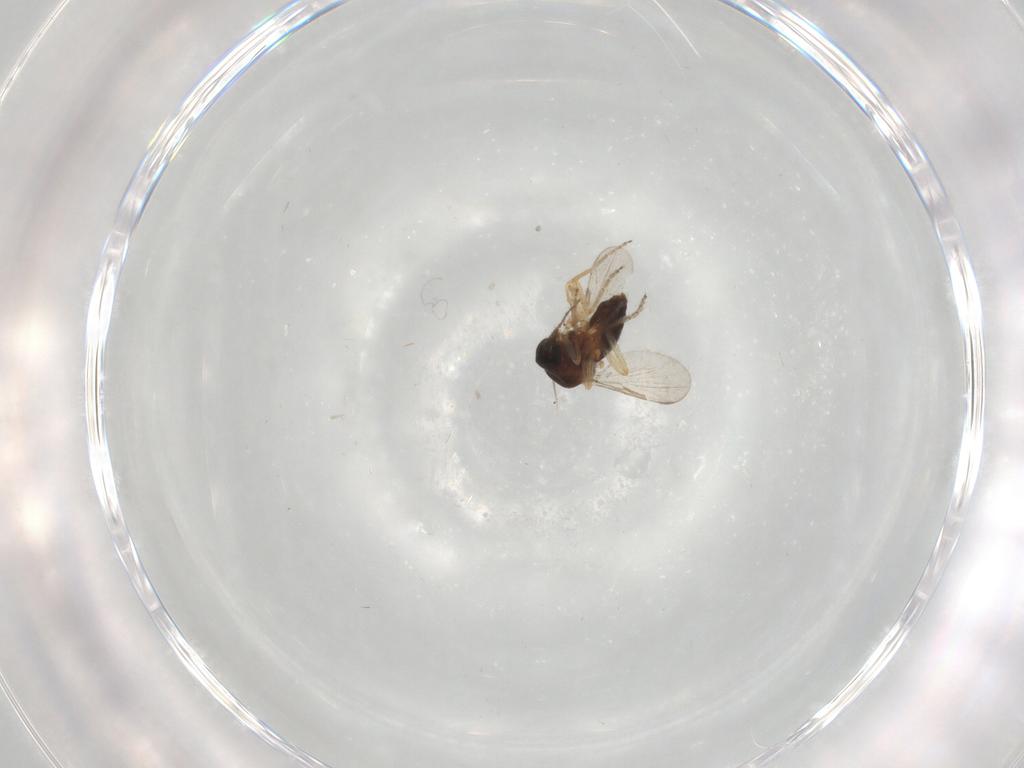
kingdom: Animalia
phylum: Arthropoda
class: Insecta
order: Diptera
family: Ceratopogonidae
